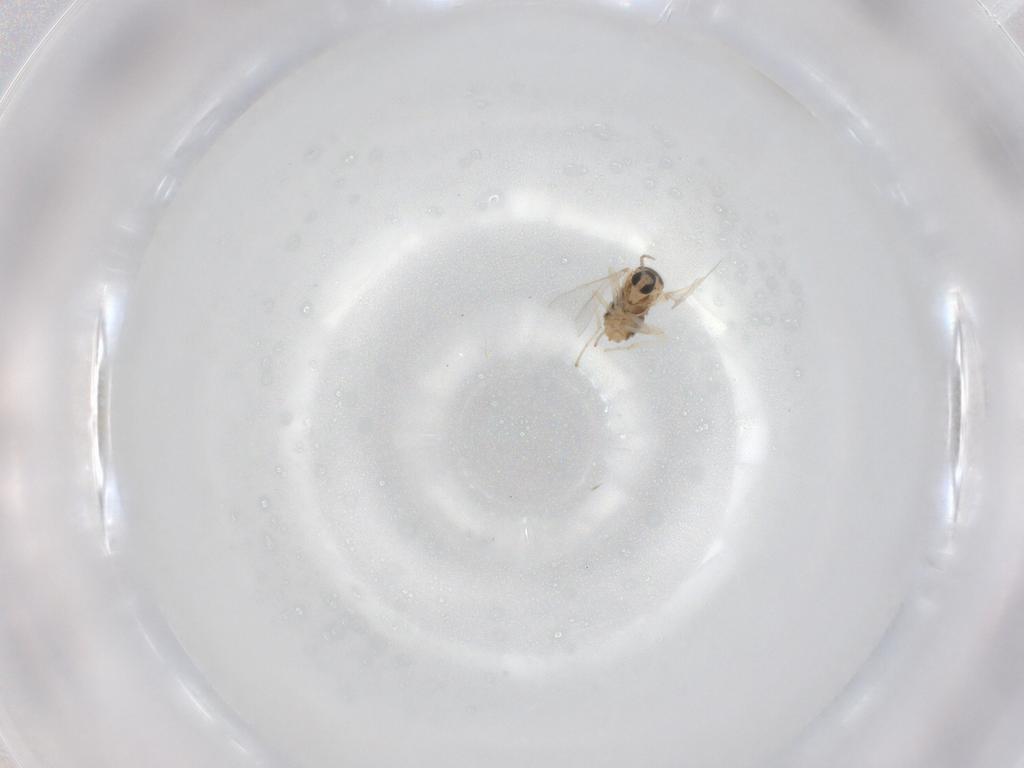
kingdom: Animalia
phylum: Arthropoda
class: Insecta
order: Diptera
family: Cecidomyiidae
